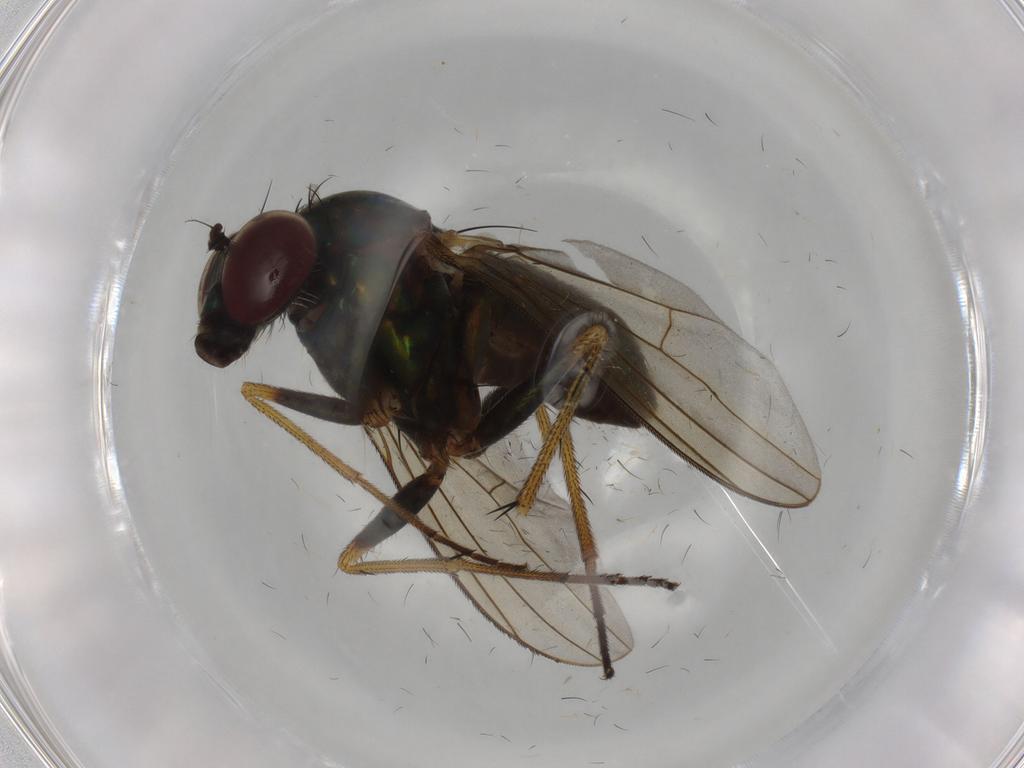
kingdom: Animalia
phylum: Arthropoda
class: Insecta
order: Diptera
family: Dolichopodidae
